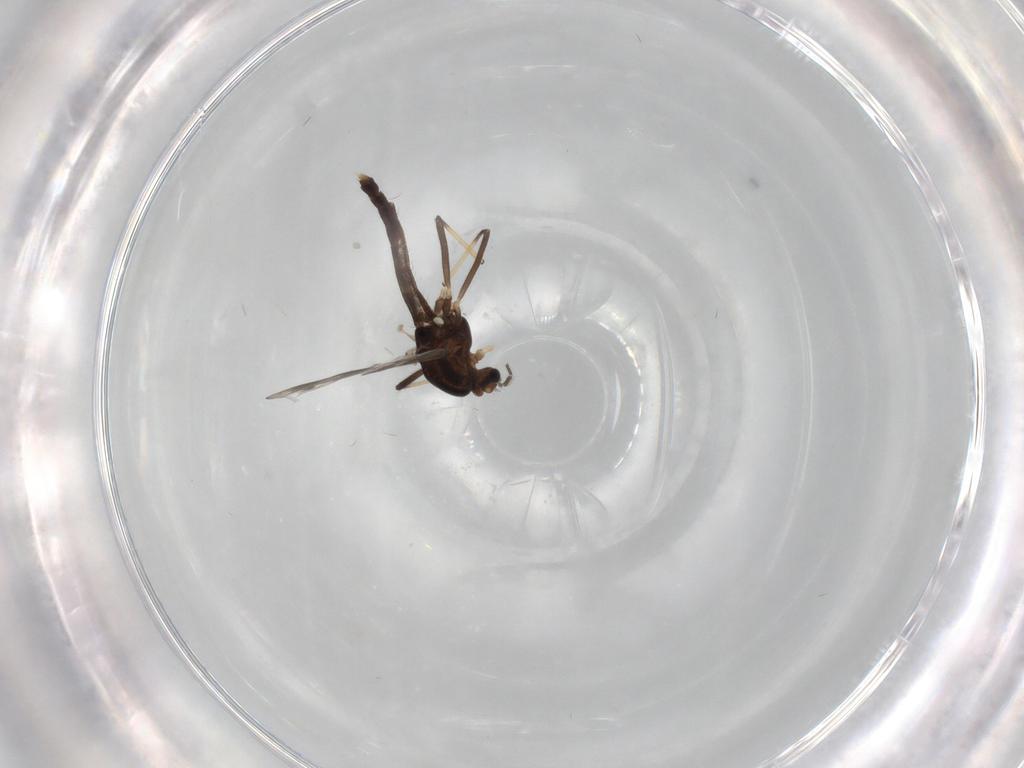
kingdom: Animalia
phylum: Arthropoda
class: Insecta
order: Diptera
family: Chironomidae
